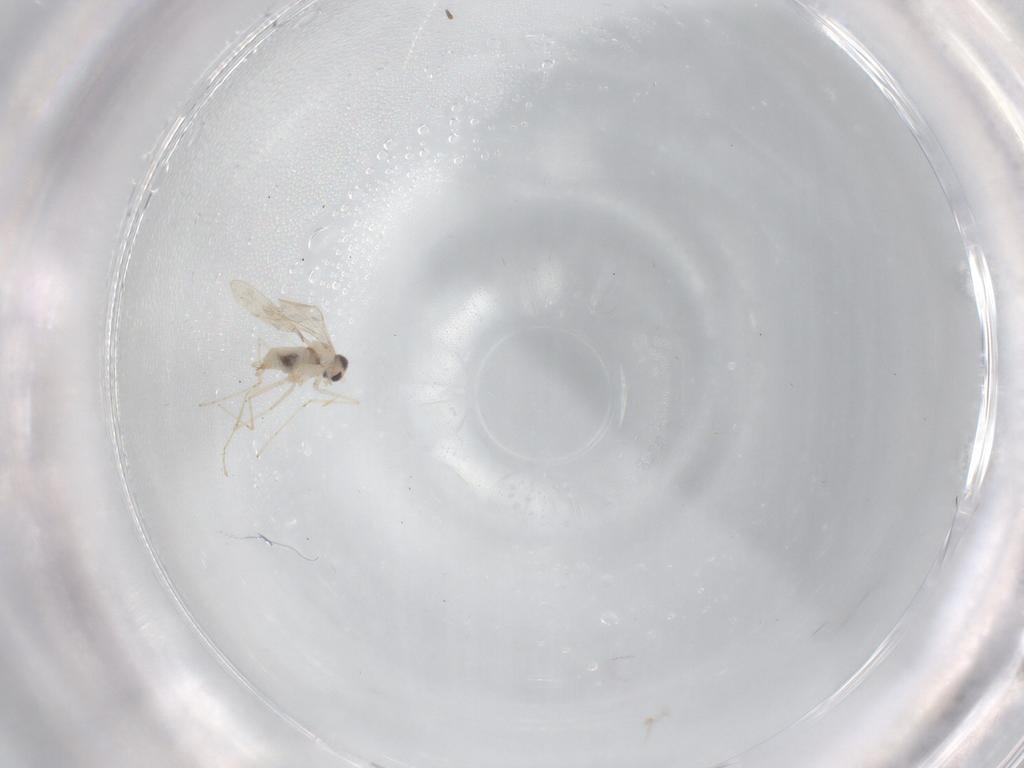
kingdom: Animalia
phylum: Arthropoda
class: Insecta
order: Diptera
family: Cecidomyiidae
